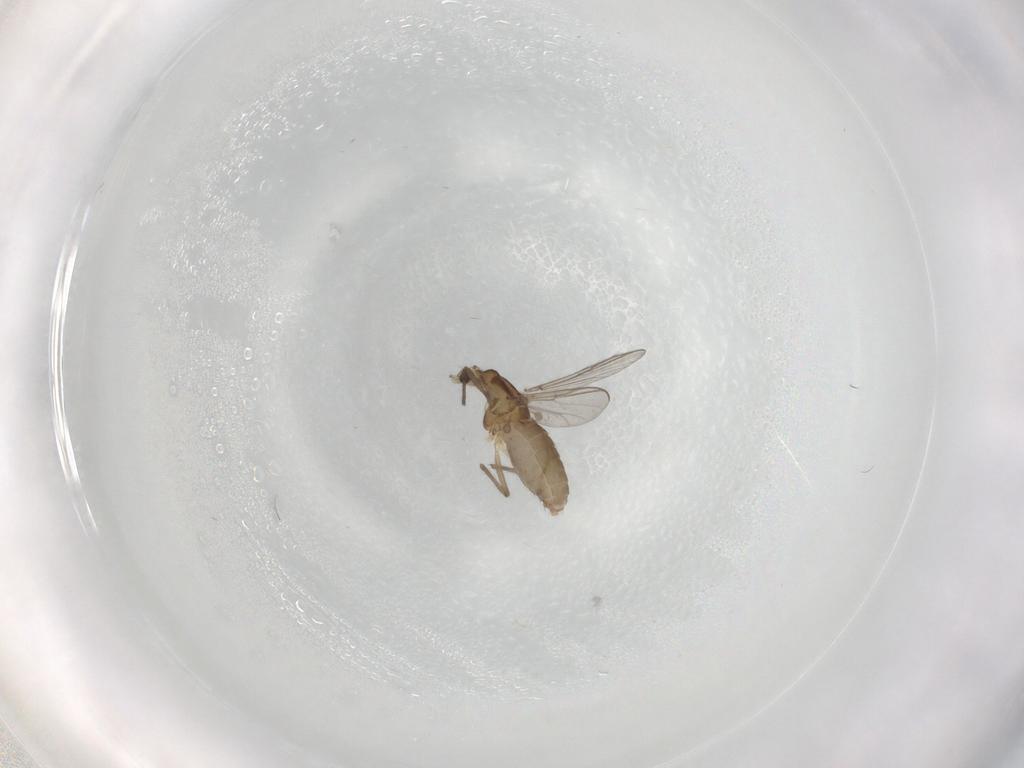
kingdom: Animalia
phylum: Arthropoda
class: Insecta
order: Diptera
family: Chironomidae
